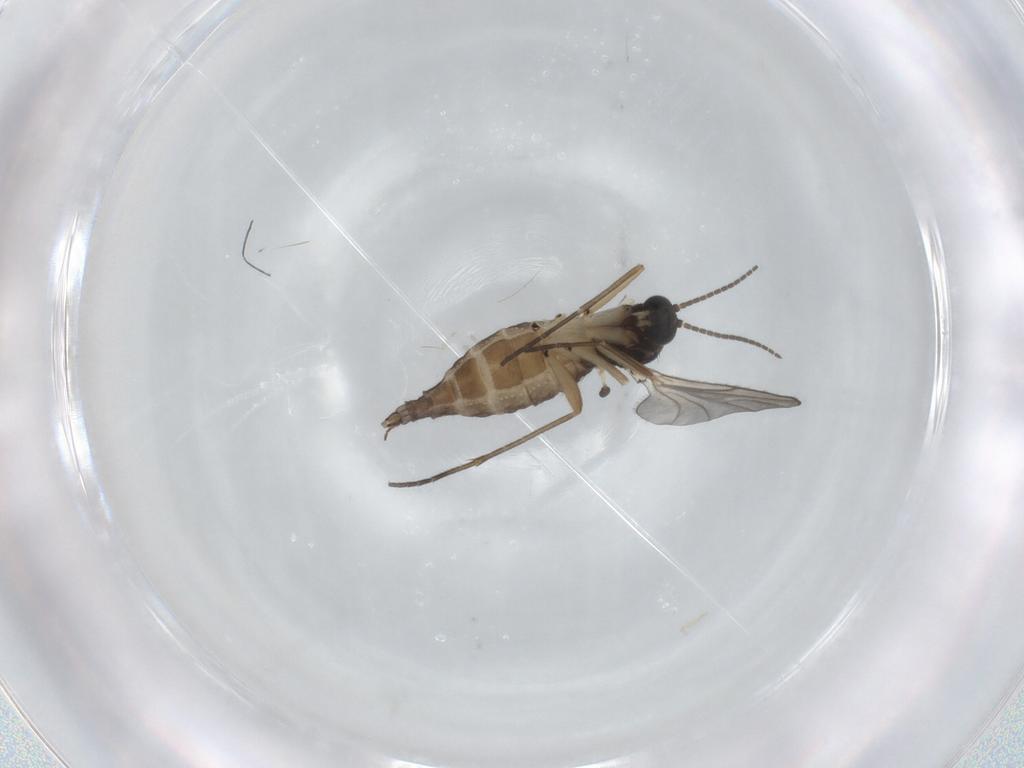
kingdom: Animalia
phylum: Arthropoda
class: Insecta
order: Diptera
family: Sciaridae
